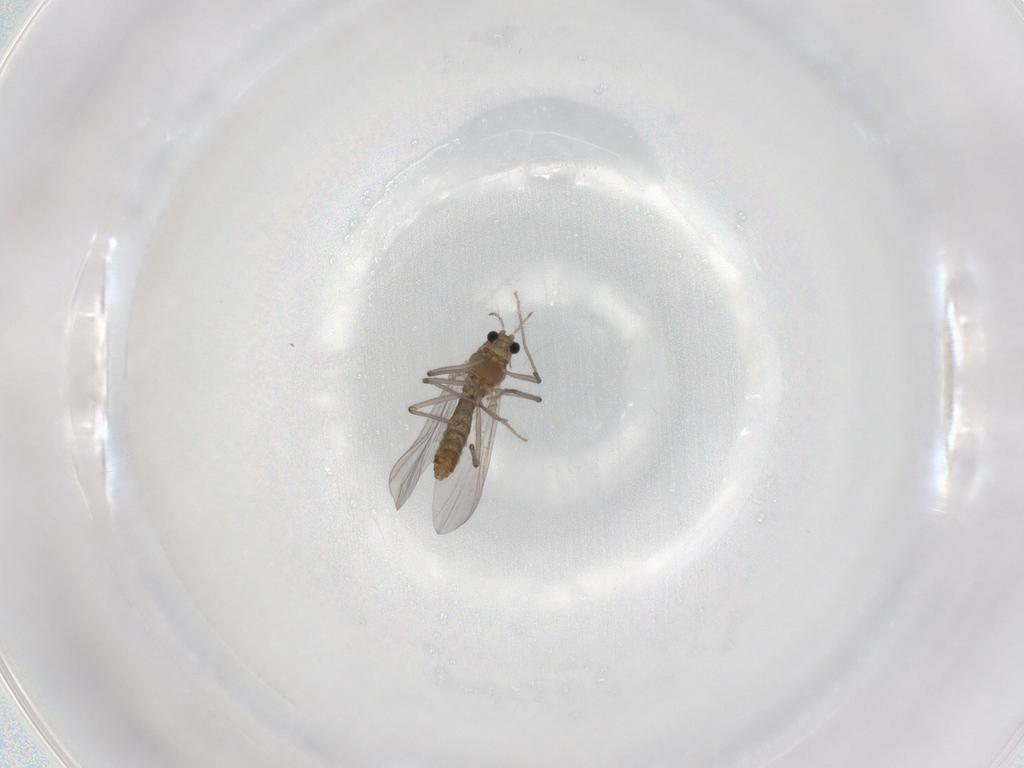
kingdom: Animalia
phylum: Arthropoda
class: Insecta
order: Diptera
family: Chironomidae
